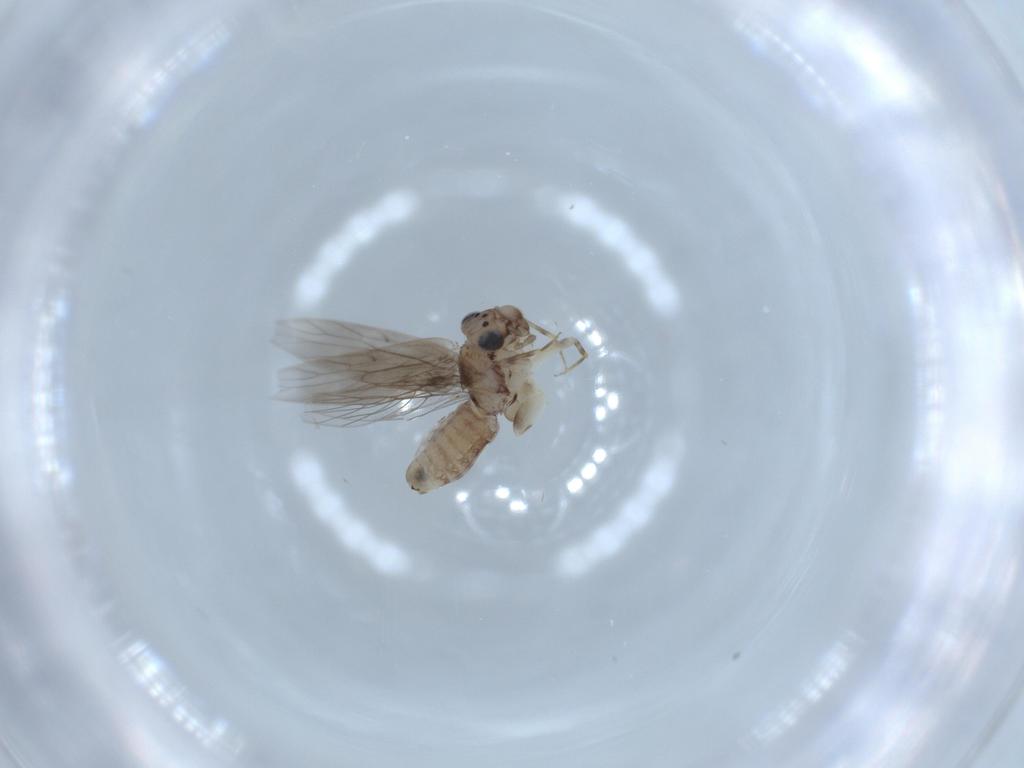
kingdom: Animalia
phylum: Arthropoda
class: Insecta
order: Psocodea
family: Lepidopsocidae
